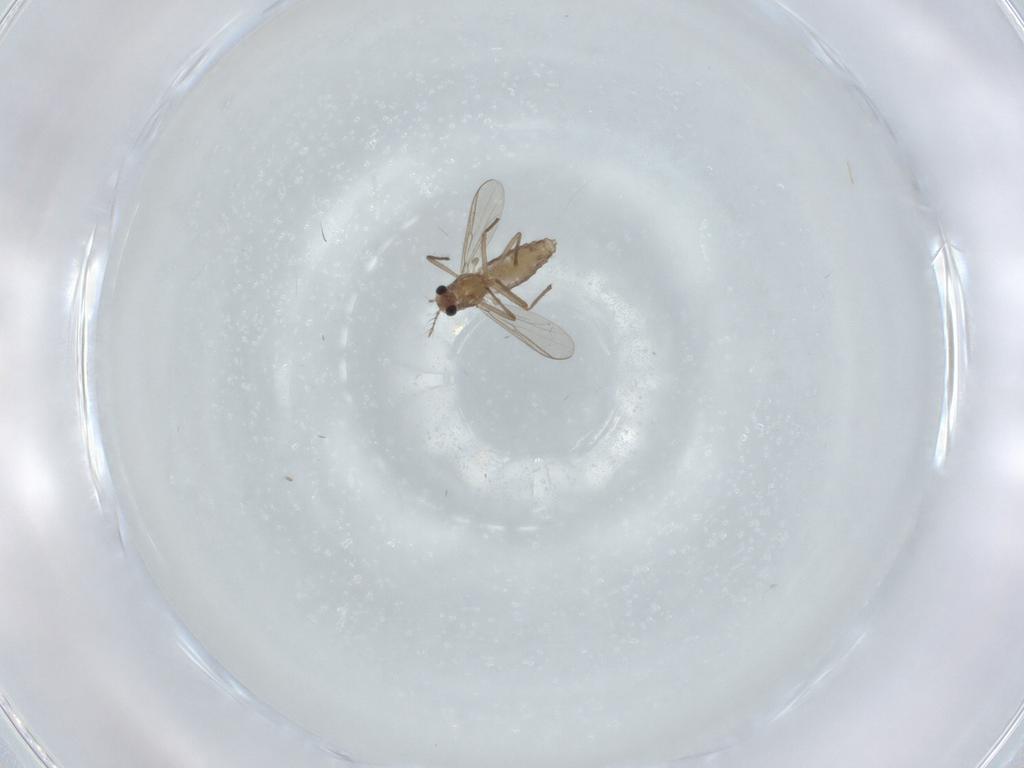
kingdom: Animalia
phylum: Arthropoda
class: Insecta
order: Diptera
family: Chironomidae
